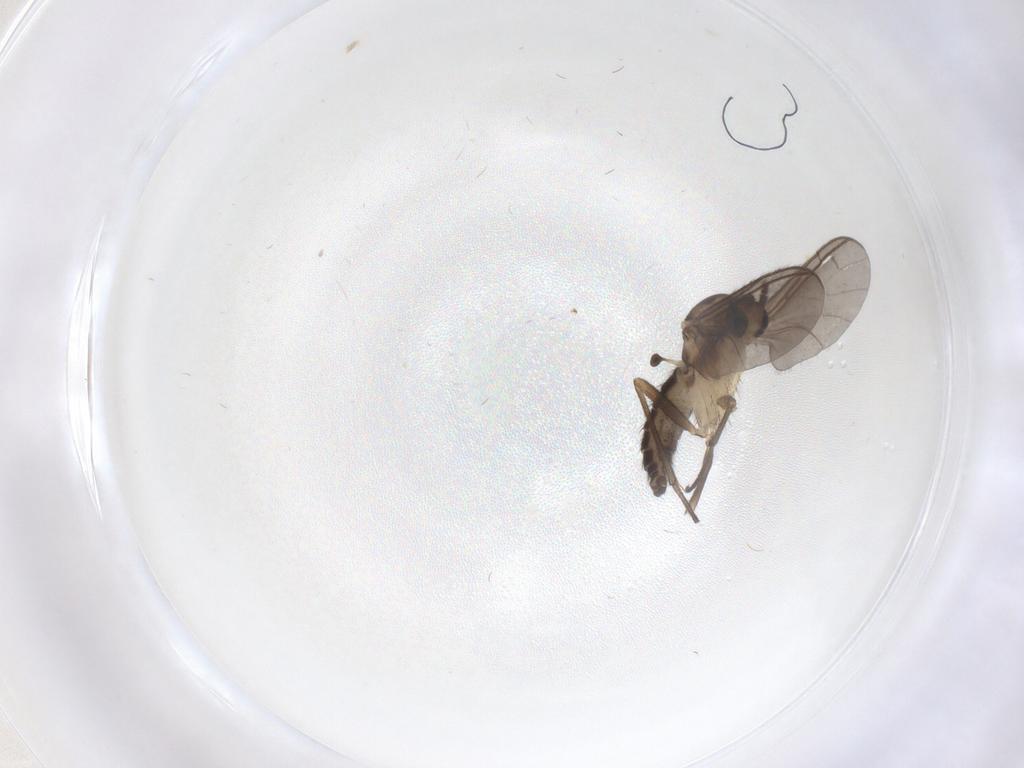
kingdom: Animalia
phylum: Arthropoda
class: Insecta
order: Diptera
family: Sciaridae
